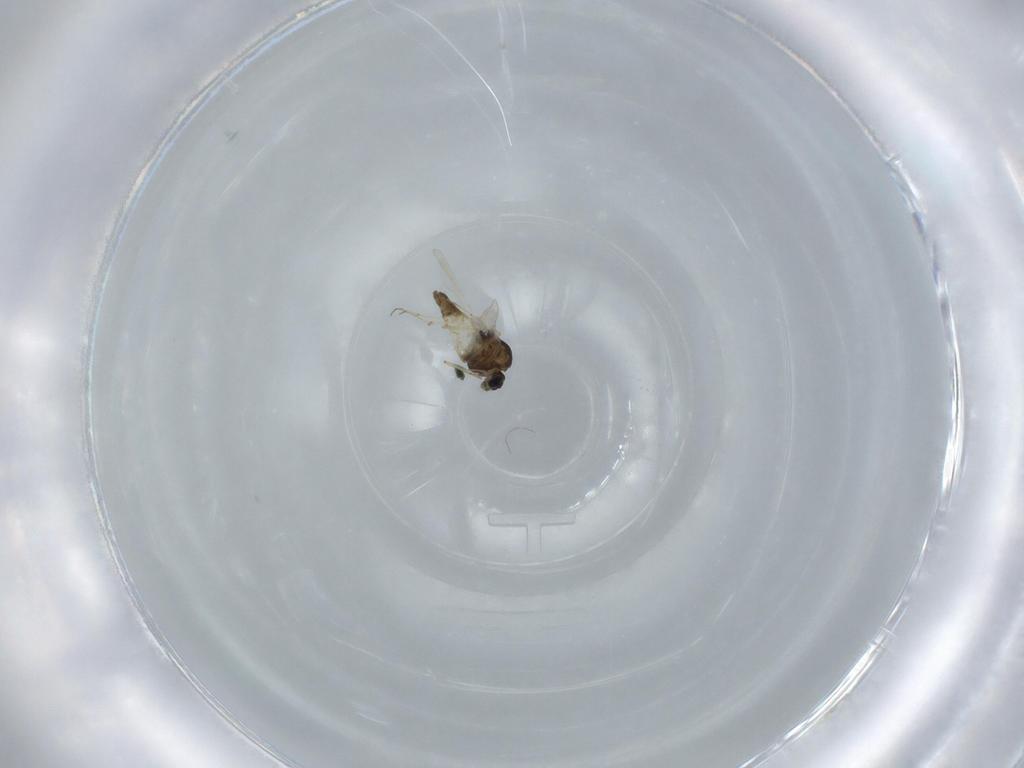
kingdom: Animalia
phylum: Arthropoda
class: Insecta
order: Diptera
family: Chironomidae
